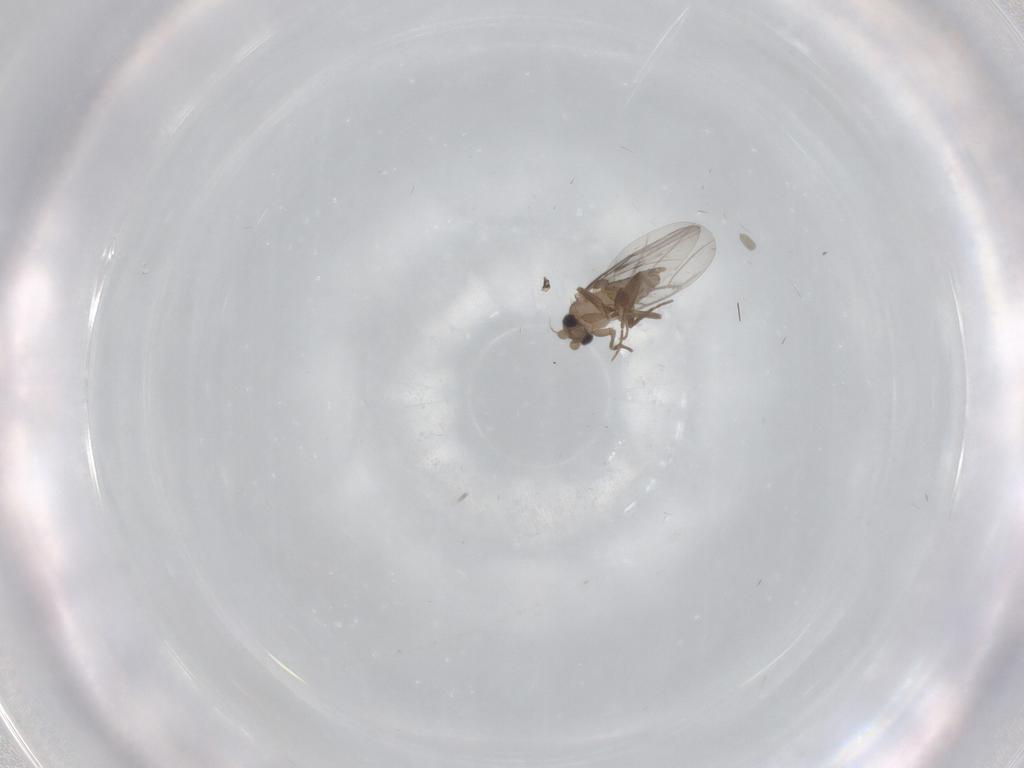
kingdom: Animalia
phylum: Arthropoda
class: Insecta
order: Diptera
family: Psychodidae
